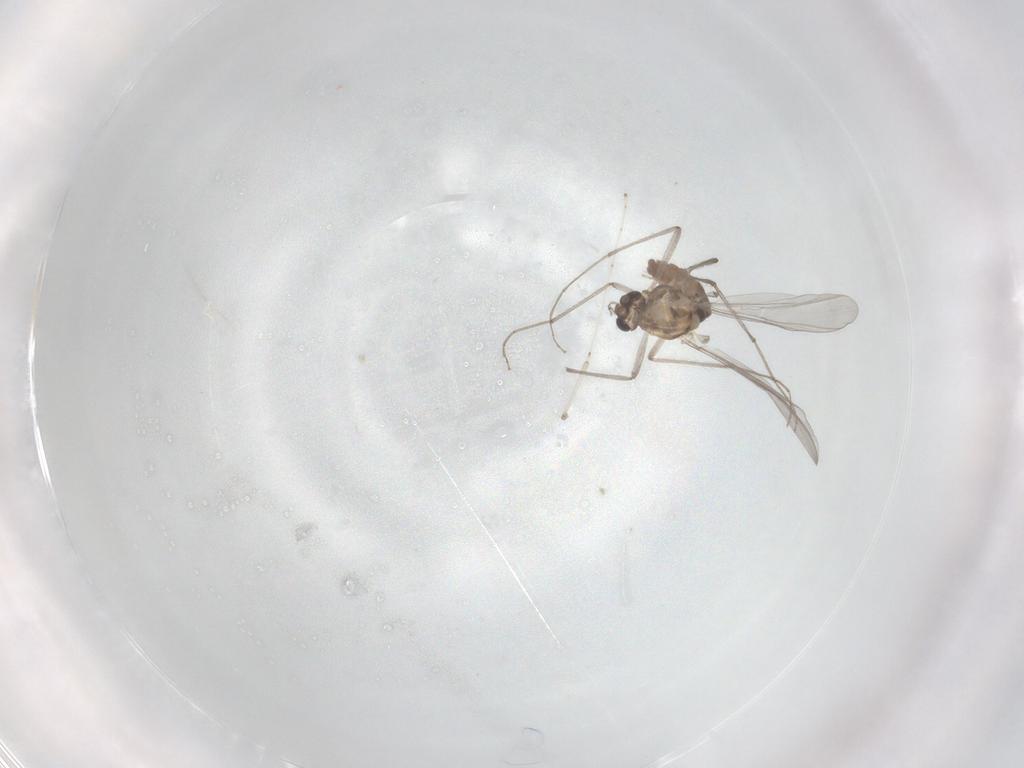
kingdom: Animalia
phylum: Arthropoda
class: Insecta
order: Diptera
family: Chironomidae
